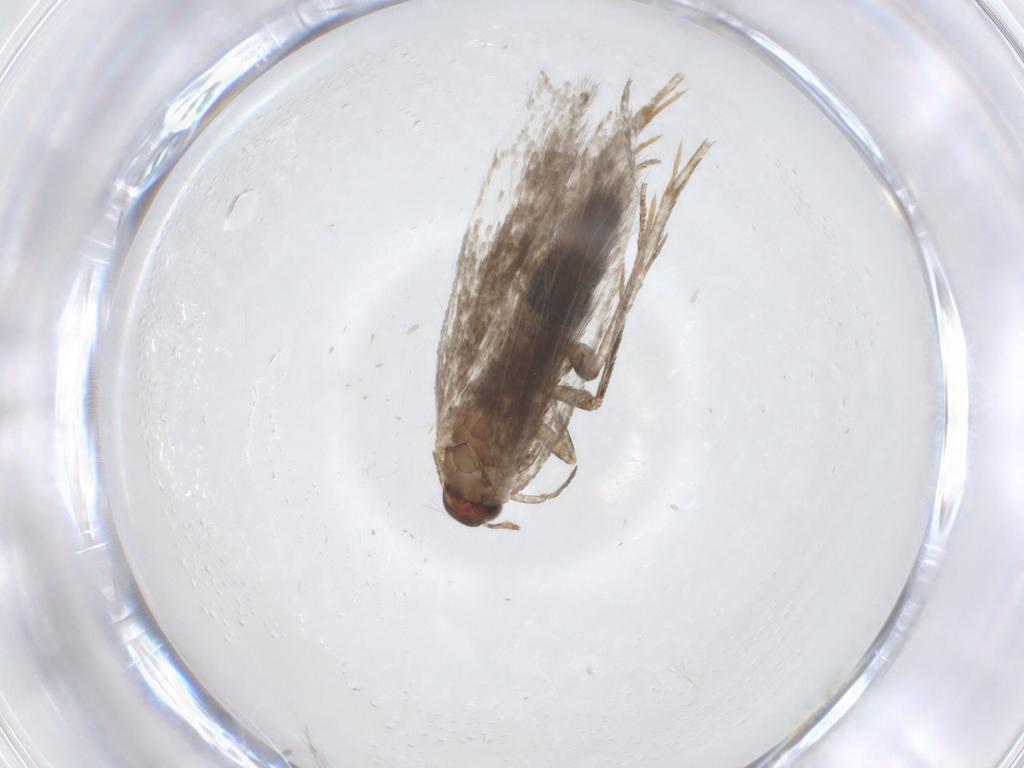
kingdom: Animalia
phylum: Arthropoda
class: Insecta
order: Lepidoptera
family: Gelechiidae
